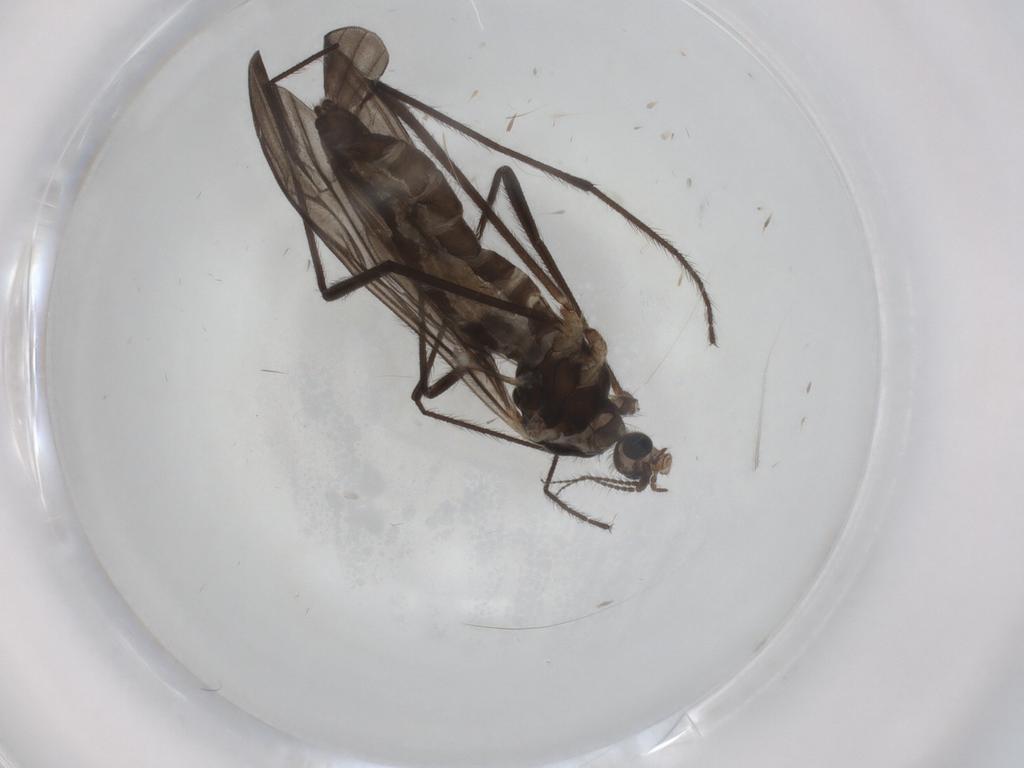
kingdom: Animalia
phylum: Arthropoda
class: Insecta
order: Diptera
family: Limoniidae
